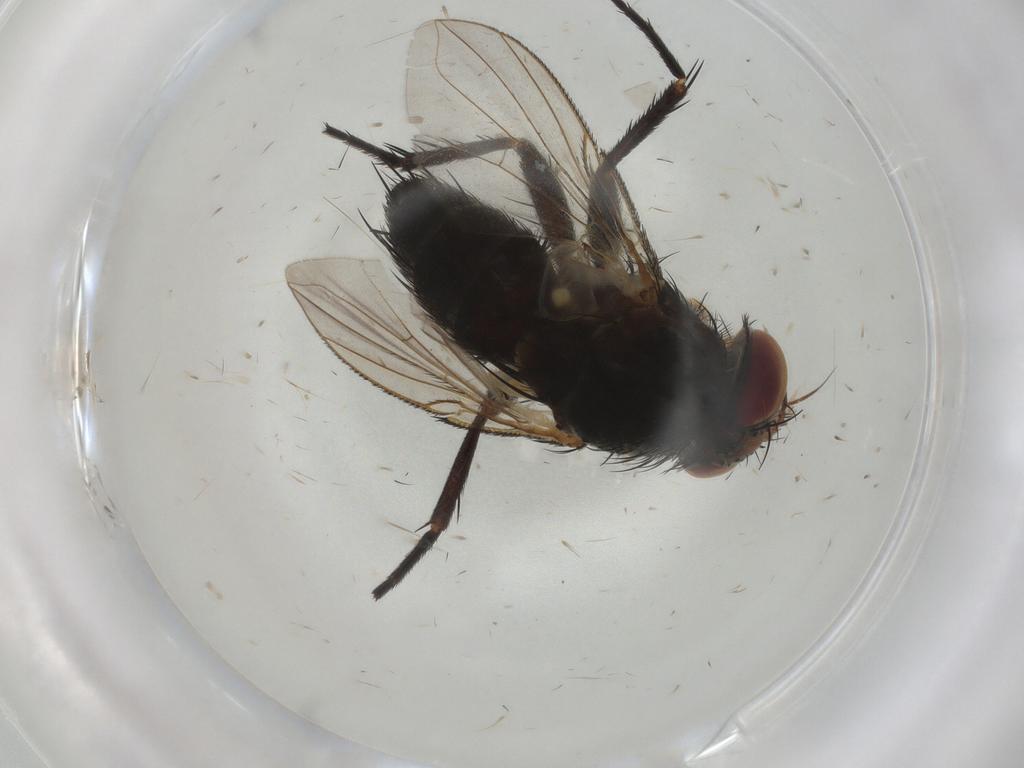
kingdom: Animalia
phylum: Arthropoda
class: Insecta
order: Diptera
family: Tachinidae
